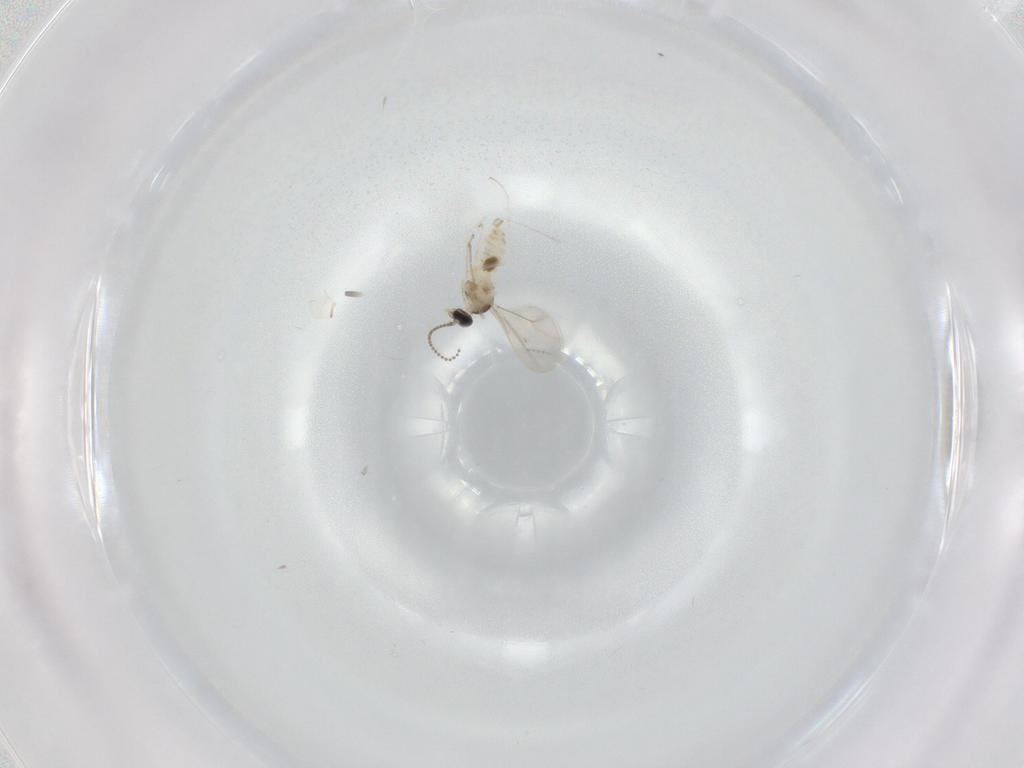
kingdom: Animalia
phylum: Arthropoda
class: Insecta
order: Diptera
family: Cecidomyiidae
